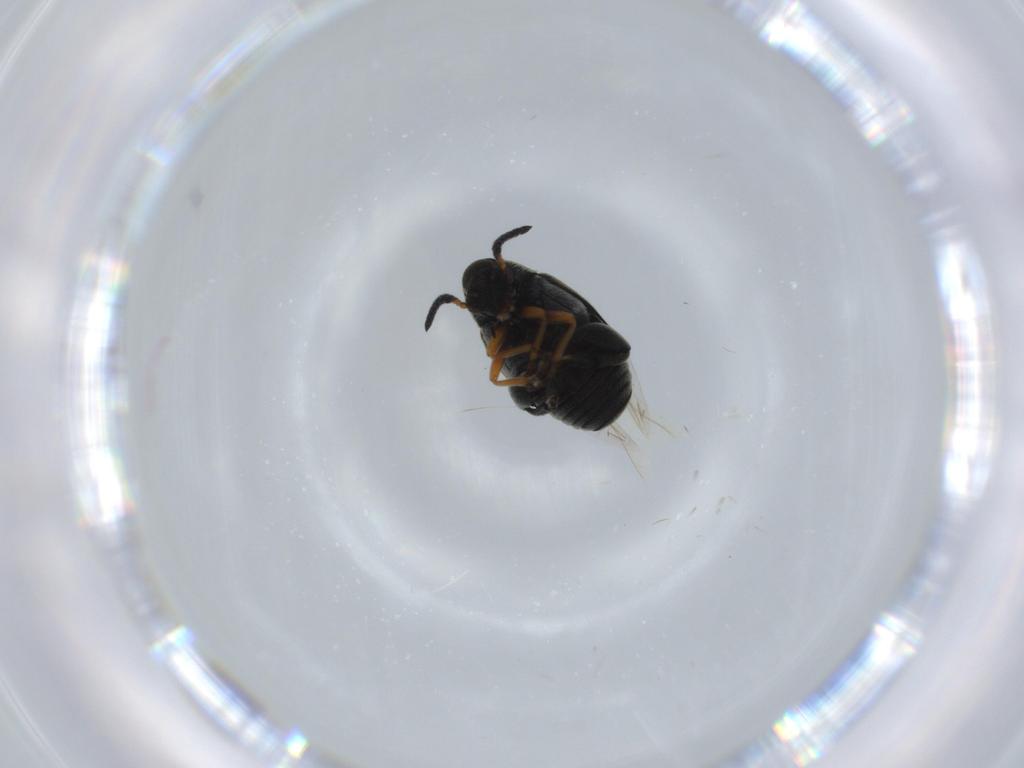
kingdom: Animalia
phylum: Arthropoda
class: Insecta
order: Coleoptera
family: Chrysomelidae
